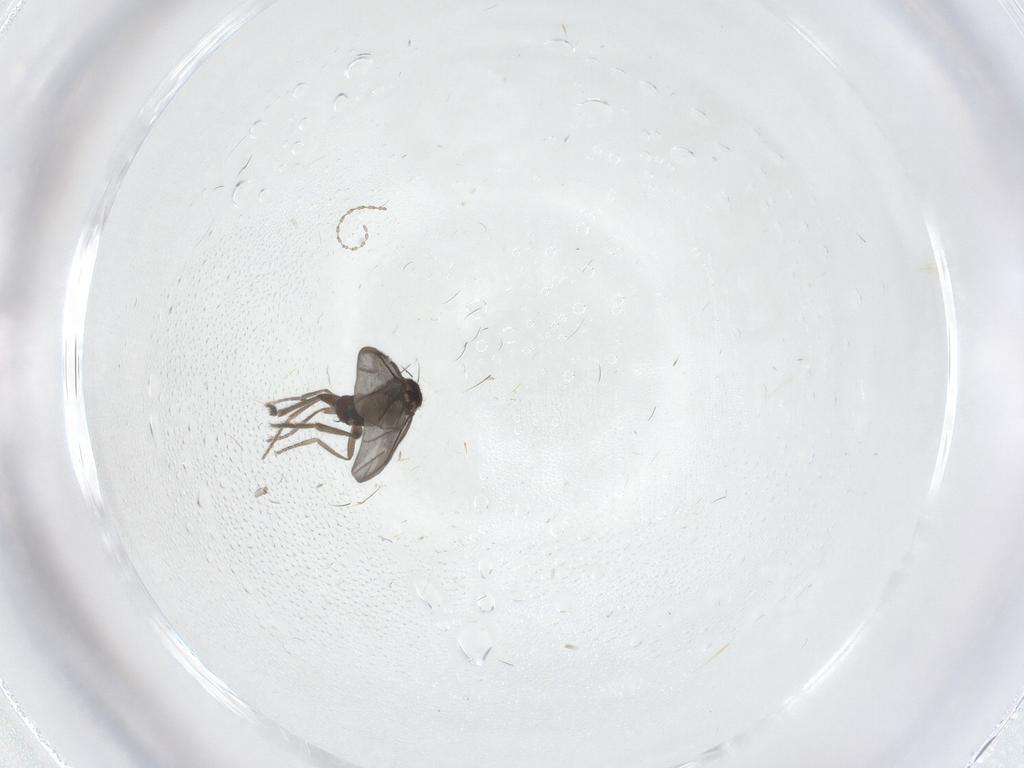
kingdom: Animalia
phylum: Arthropoda
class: Insecta
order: Diptera
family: Phoridae
